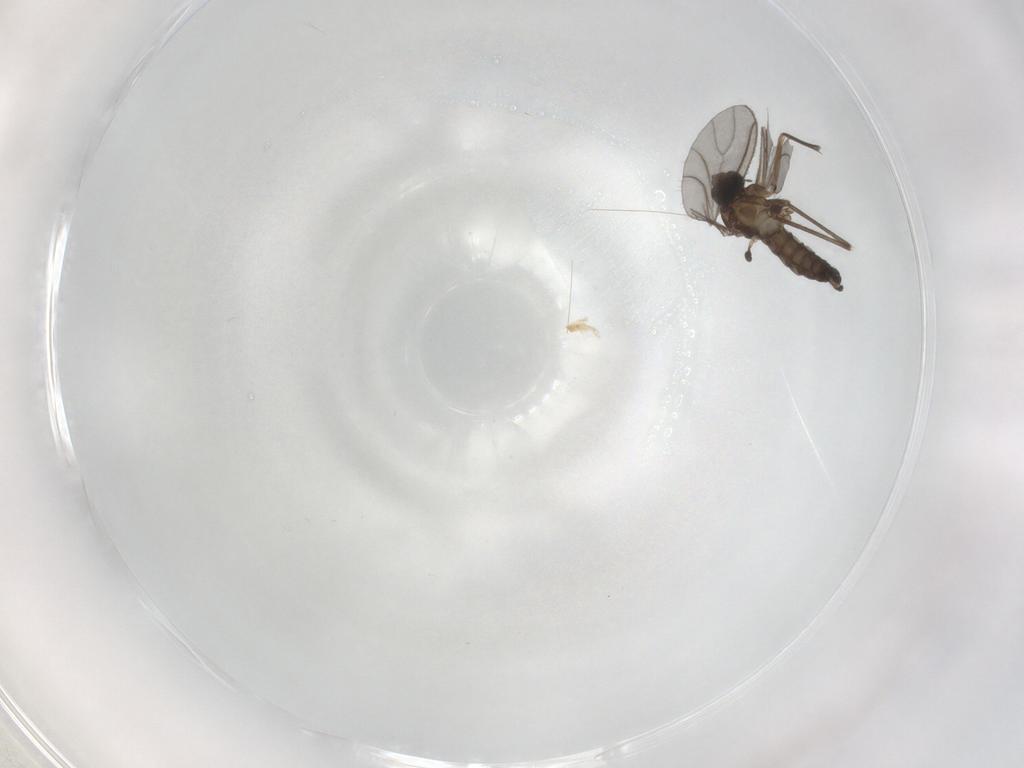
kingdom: Animalia
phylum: Arthropoda
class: Insecta
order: Diptera
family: Sciaridae
